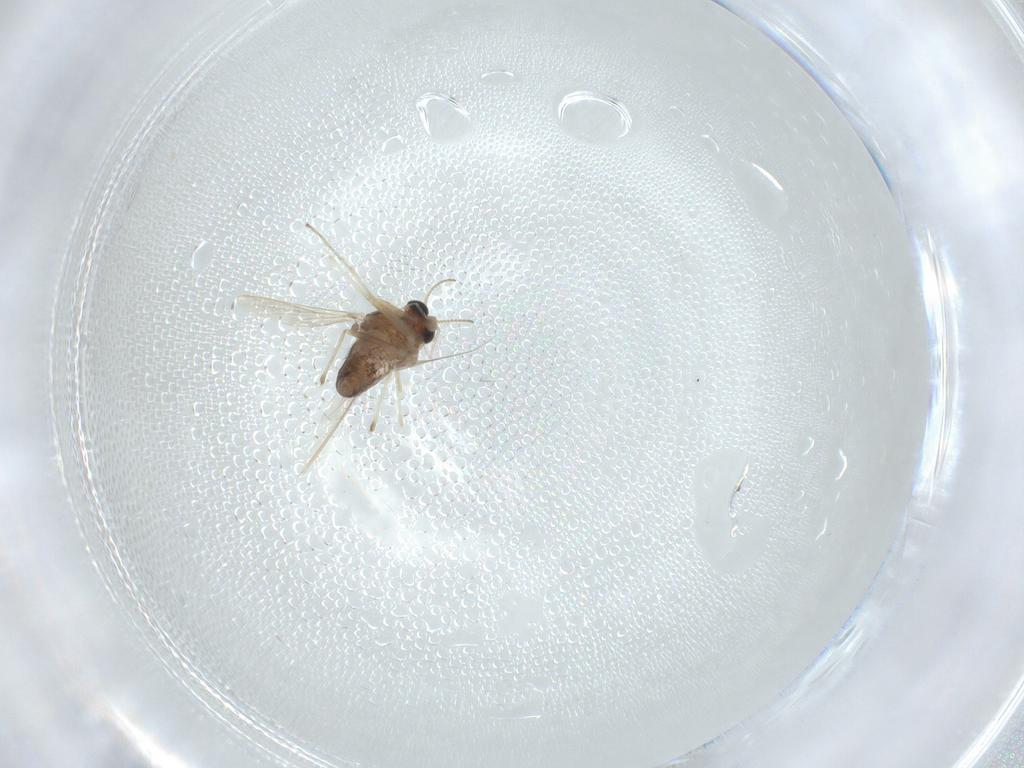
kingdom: Animalia
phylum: Arthropoda
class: Insecta
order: Diptera
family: Chironomidae
